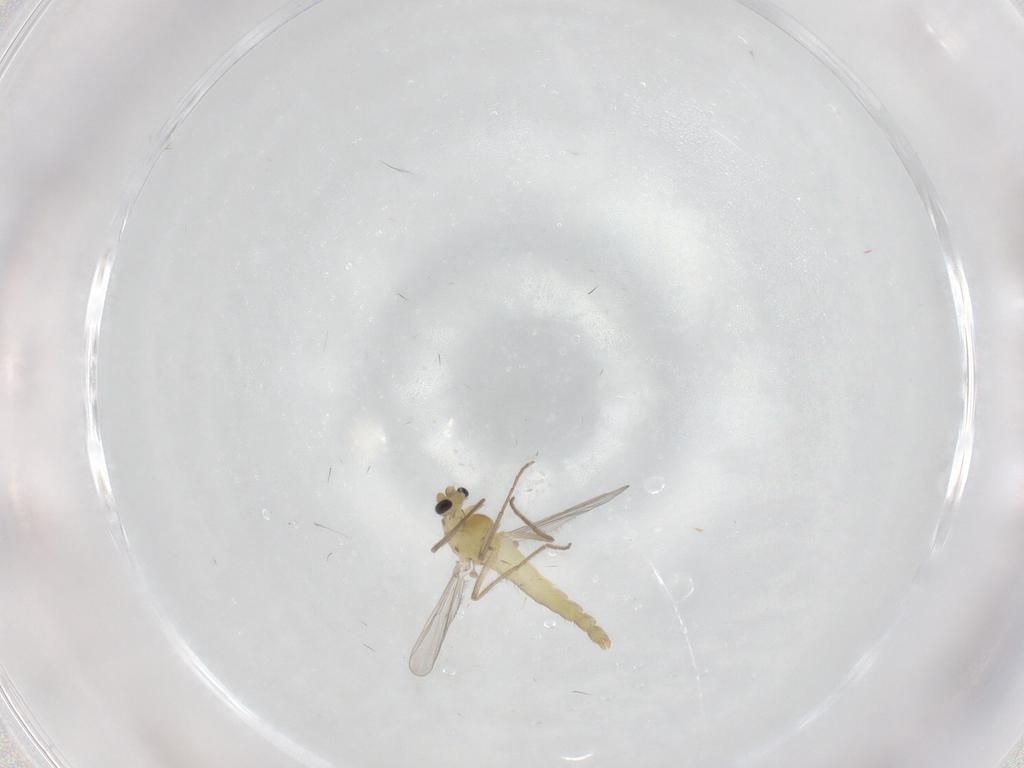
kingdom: Animalia
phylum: Arthropoda
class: Insecta
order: Diptera
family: Chironomidae
